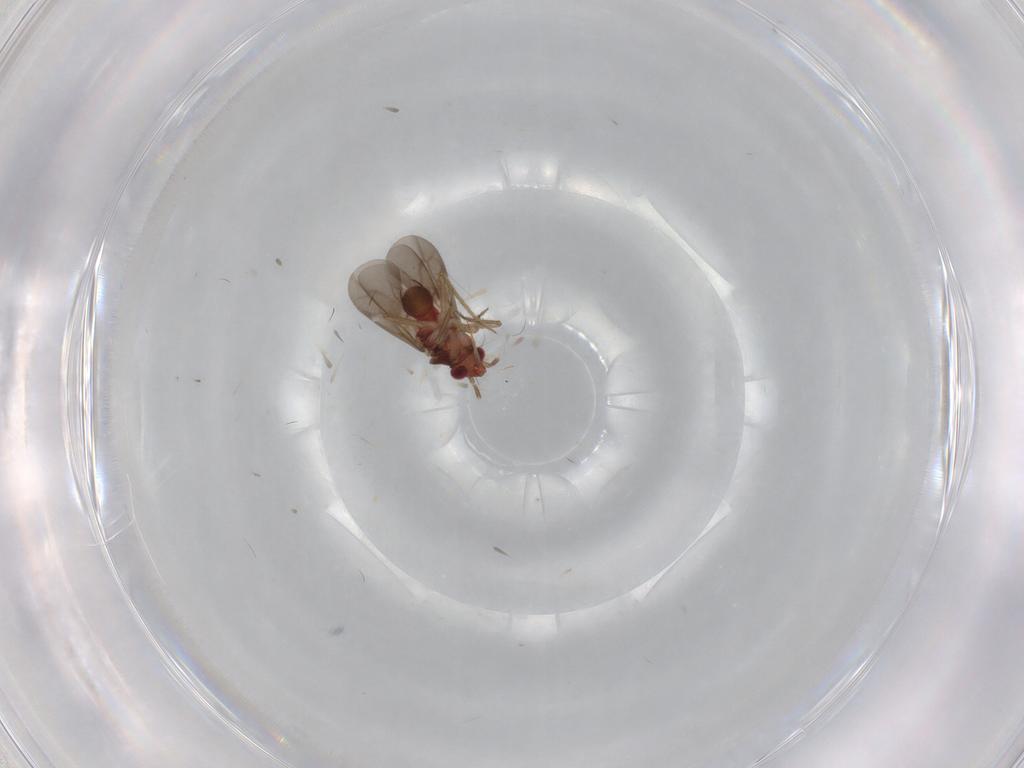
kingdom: Animalia
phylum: Arthropoda
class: Insecta
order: Hemiptera
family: Ceratocombidae
